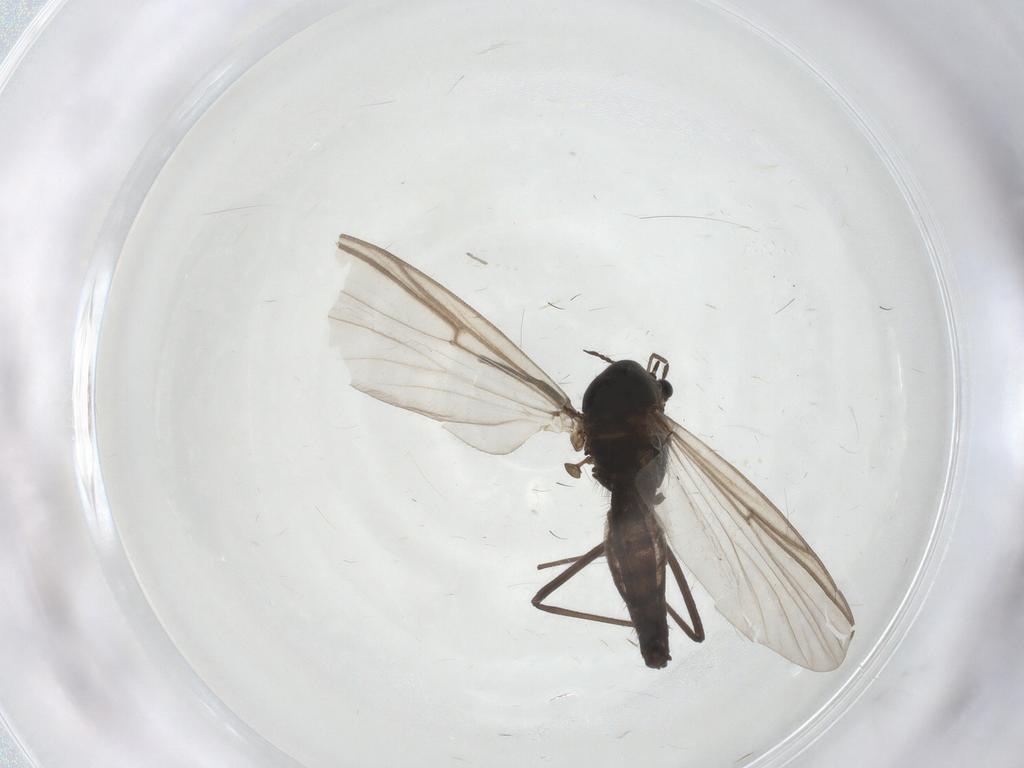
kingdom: Animalia
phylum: Arthropoda
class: Insecta
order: Diptera
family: Chironomidae
